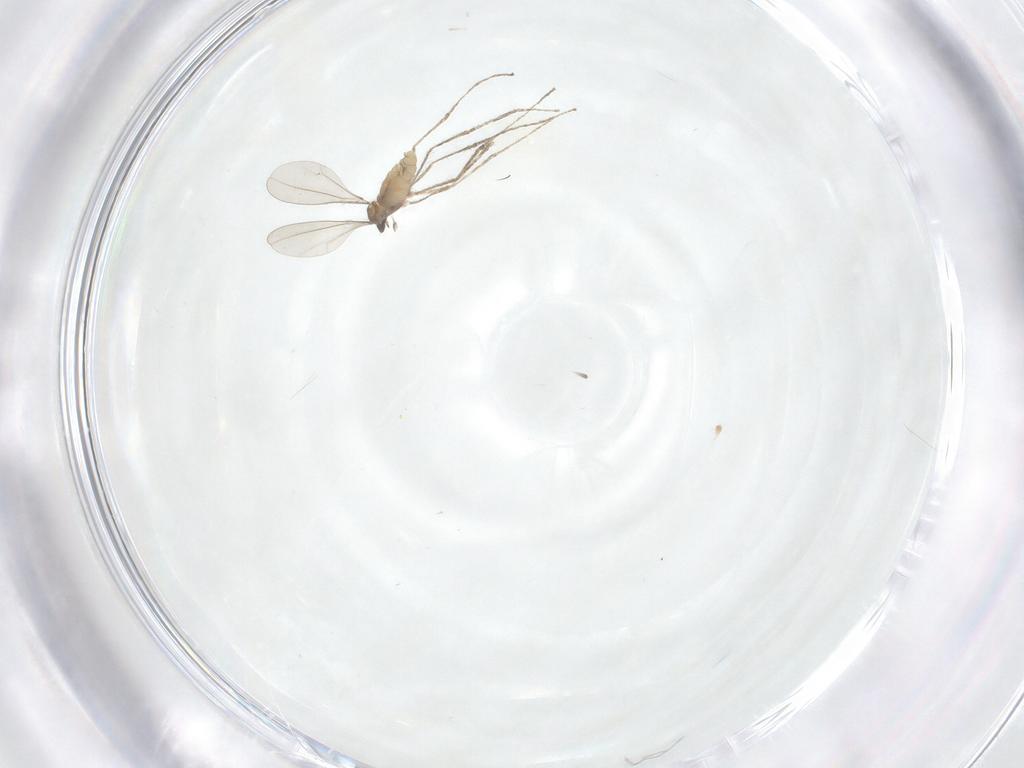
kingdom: Animalia
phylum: Arthropoda
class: Insecta
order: Diptera
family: Cecidomyiidae
